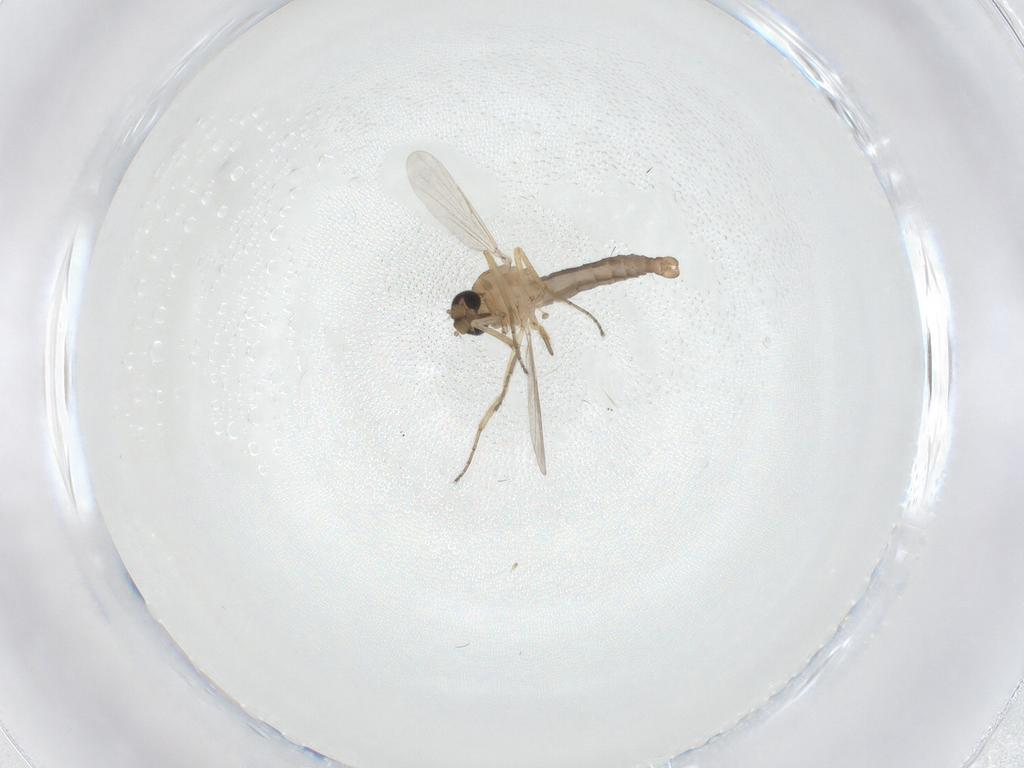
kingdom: Animalia
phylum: Arthropoda
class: Insecta
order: Diptera
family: Ceratopogonidae
